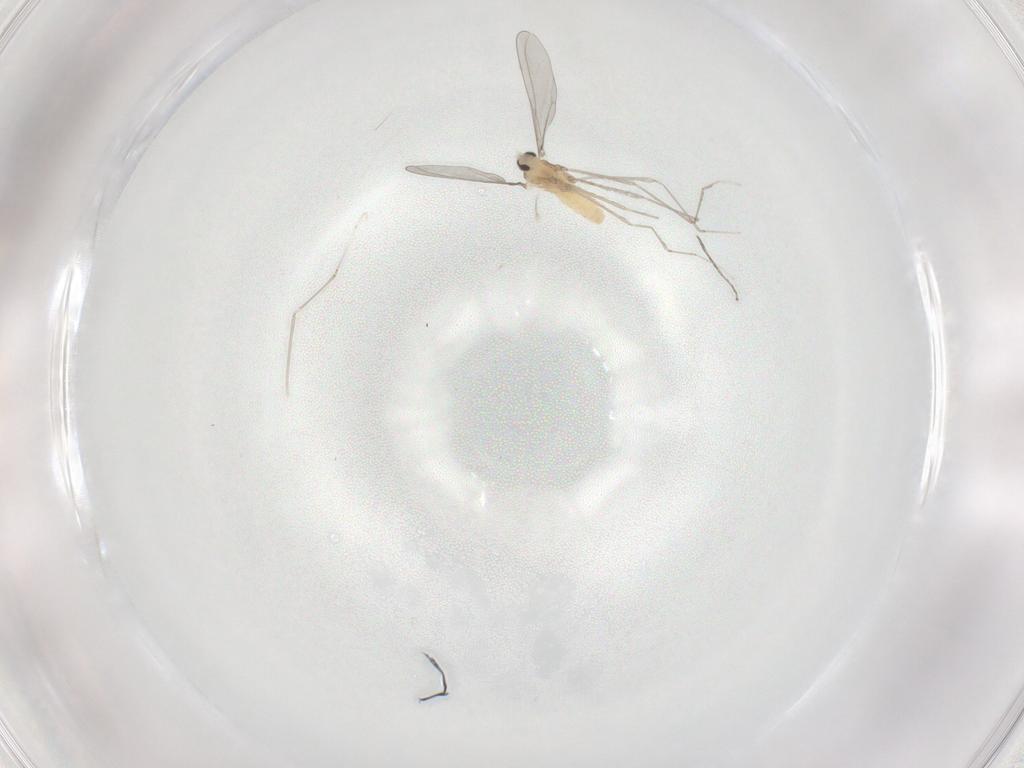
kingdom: Animalia
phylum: Arthropoda
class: Insecta
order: Diptera
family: Cecidomyiidae
